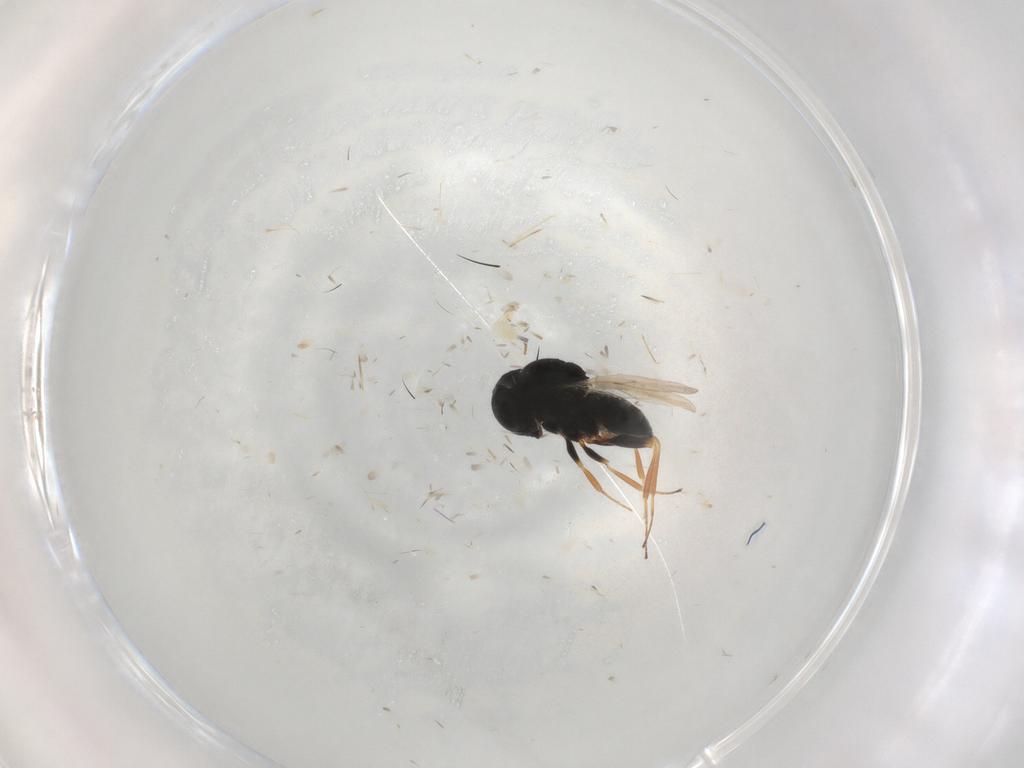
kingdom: Animalia
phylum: Arthropoda
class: Insecta
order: Coleoptera
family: Curculionidae
